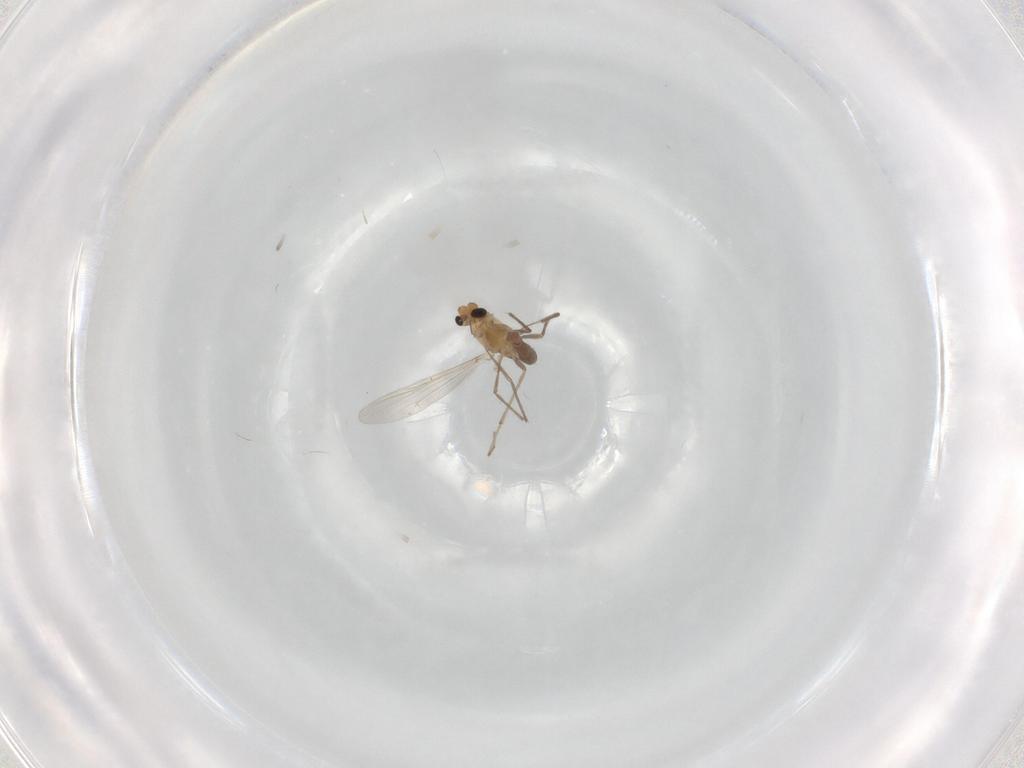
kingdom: Animalia
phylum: Arthropoda
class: Insecta
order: Diptera
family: Chironomidae
